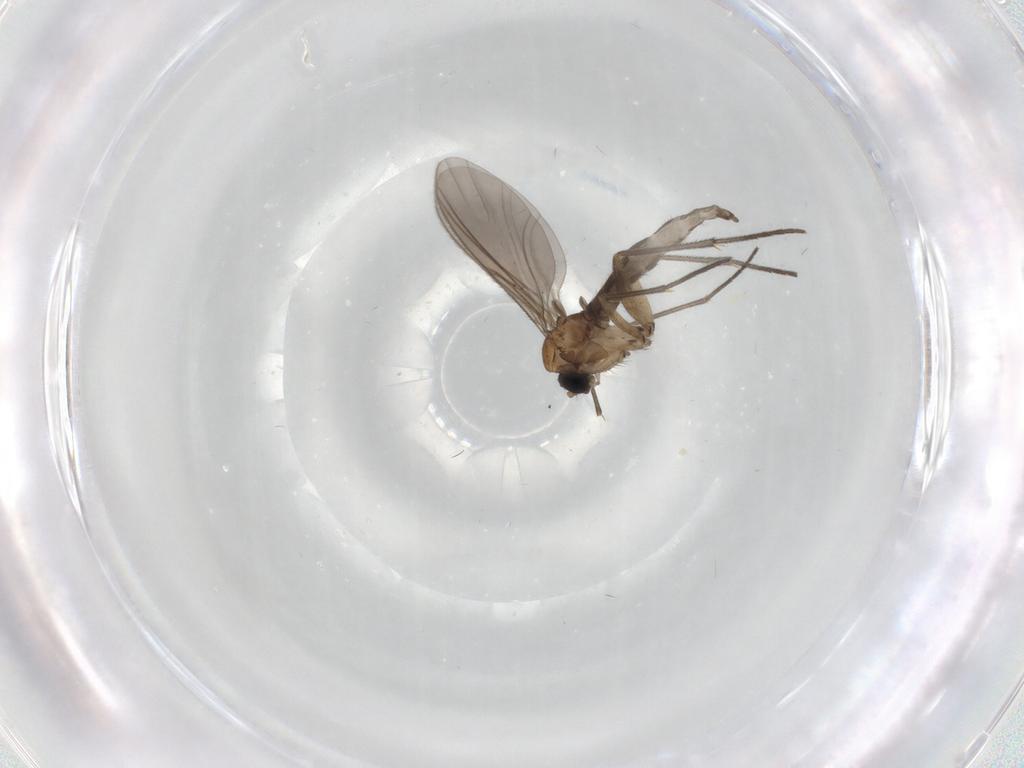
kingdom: Animalia
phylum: Arthropoda
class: Insecta
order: Diptera
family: Sciaridae
